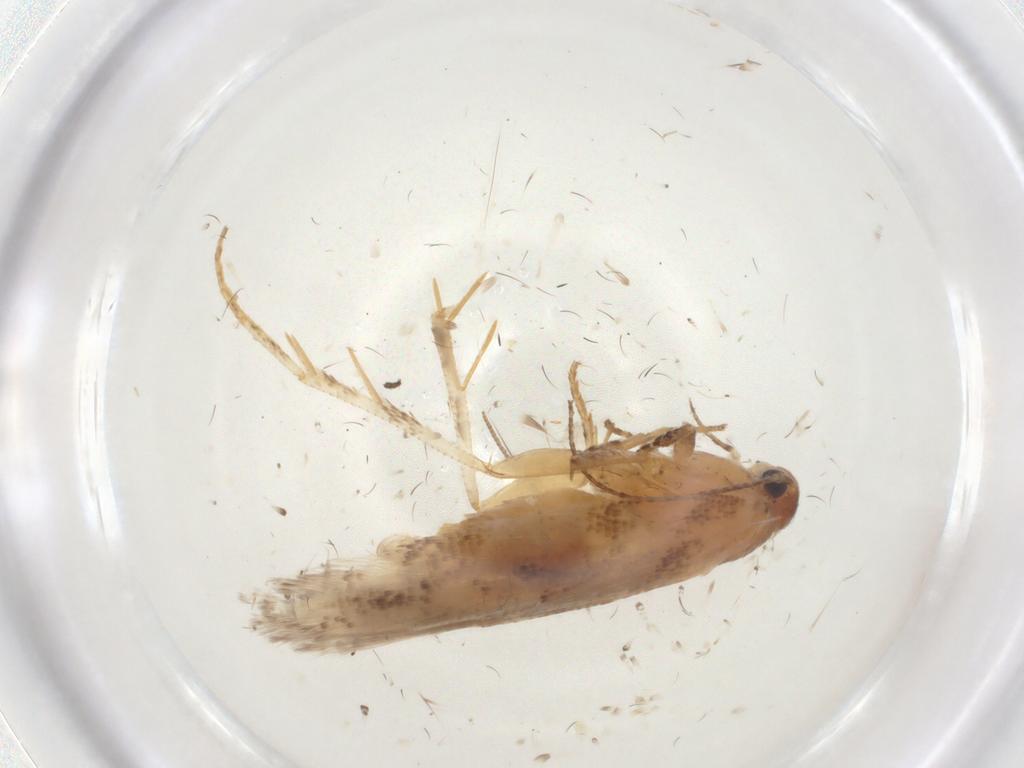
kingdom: Animalia
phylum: Arthropoda
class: Insecta
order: Lepidoptera
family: Gelechiidae
